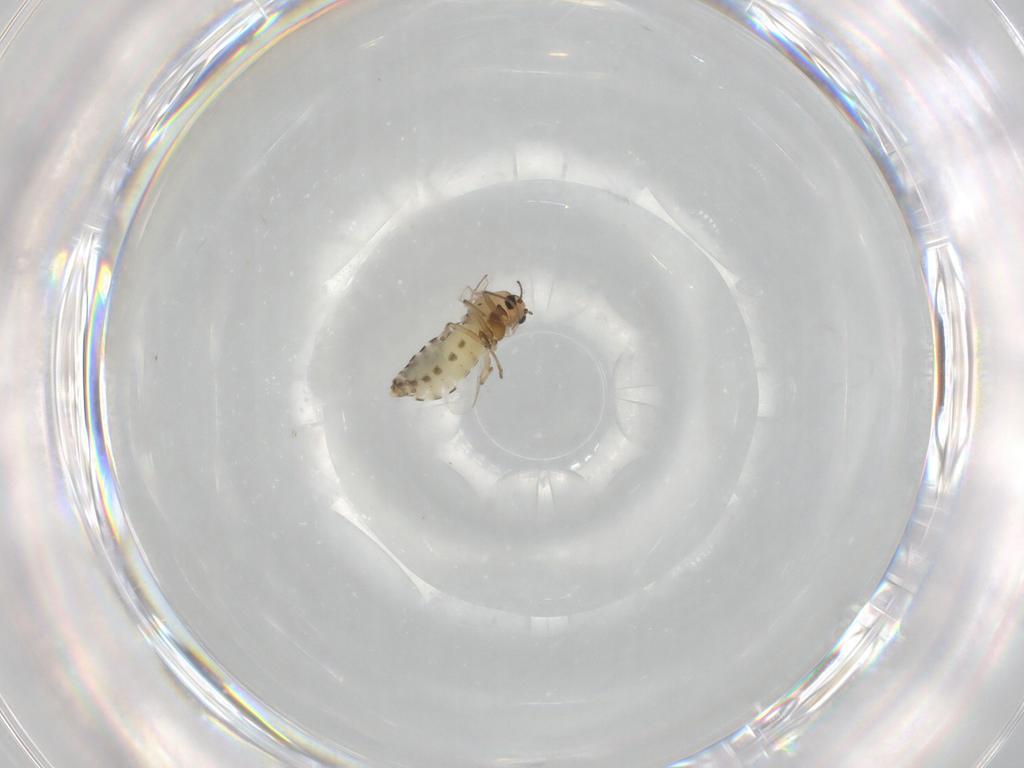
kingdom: Animalia
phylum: Arthropoda
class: Insecta
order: Diptera
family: Chironomidae
